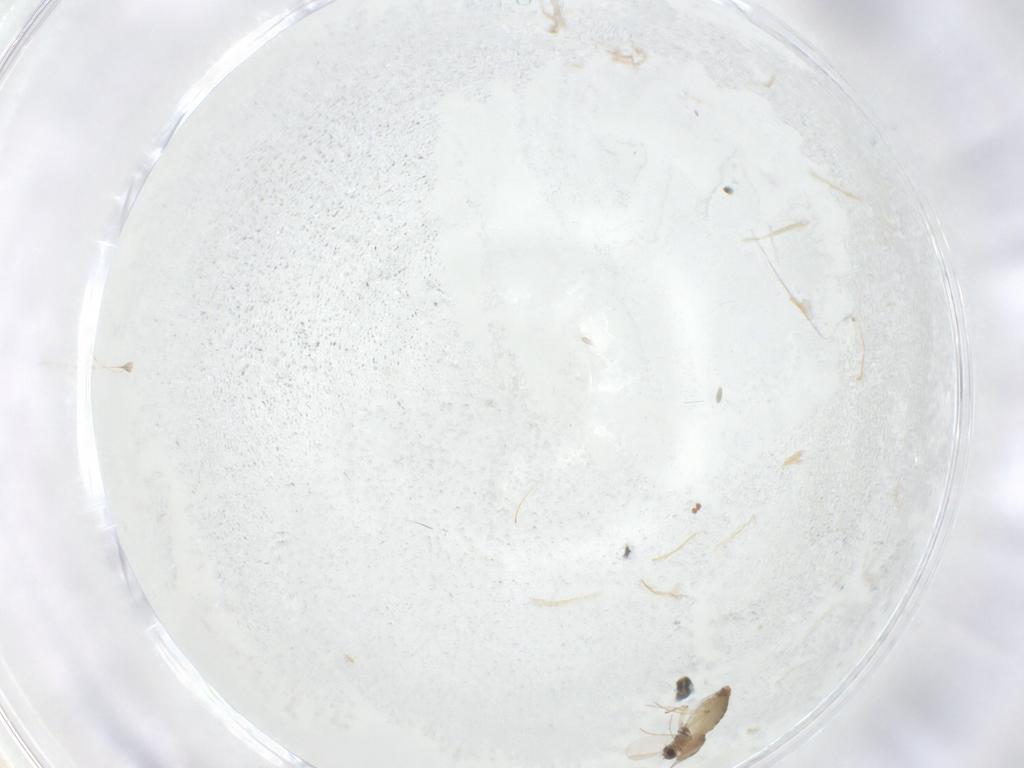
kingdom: Animalia
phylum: Arthropoda
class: Insecta
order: Diptera
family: Chironomidae
